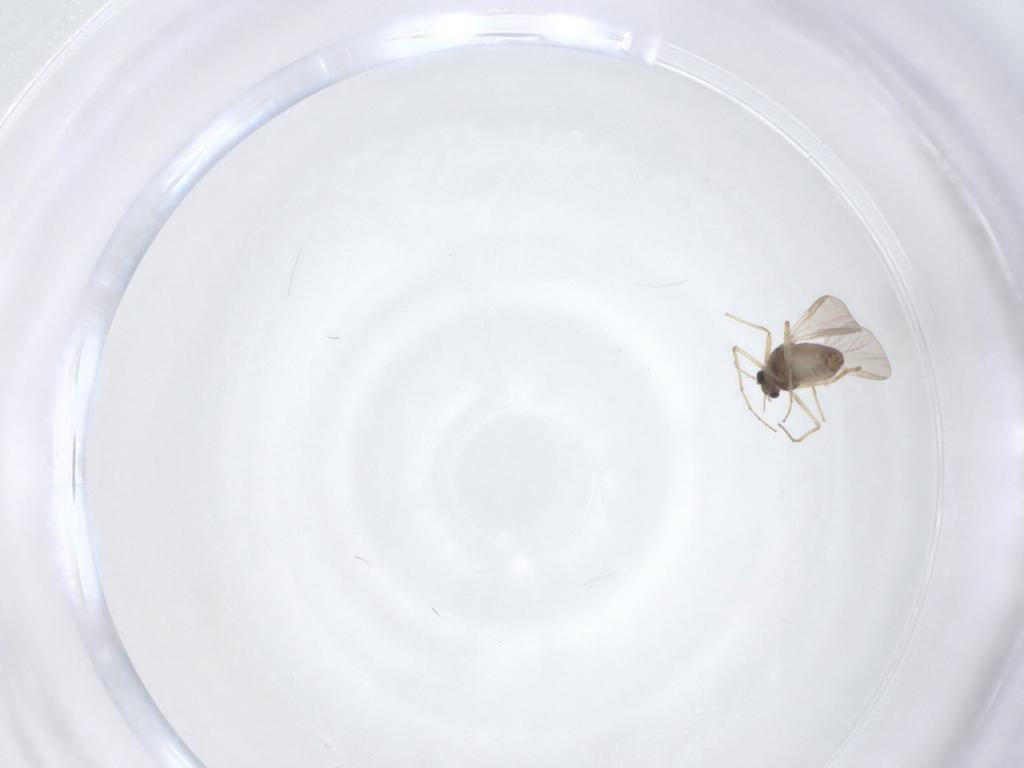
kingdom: Animalia
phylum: Arthropoda
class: Insecta
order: Diptera
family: Chironomidae
